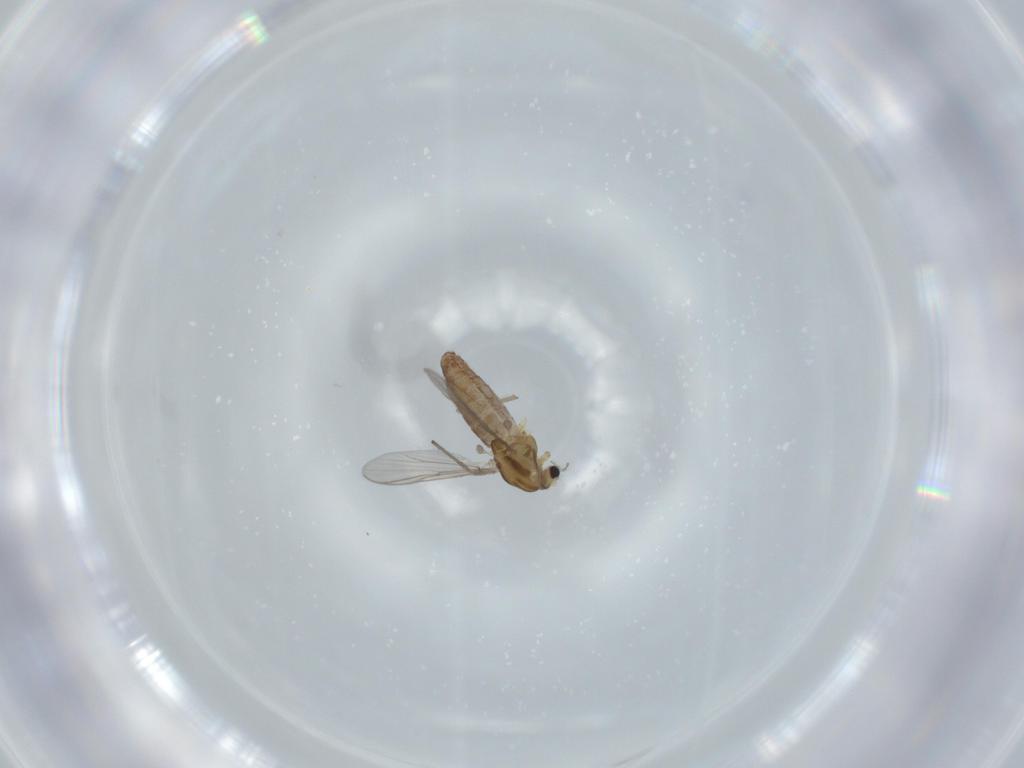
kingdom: Animalia
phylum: Arthropoda
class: Insecta
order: Diptera
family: Chironomidae
